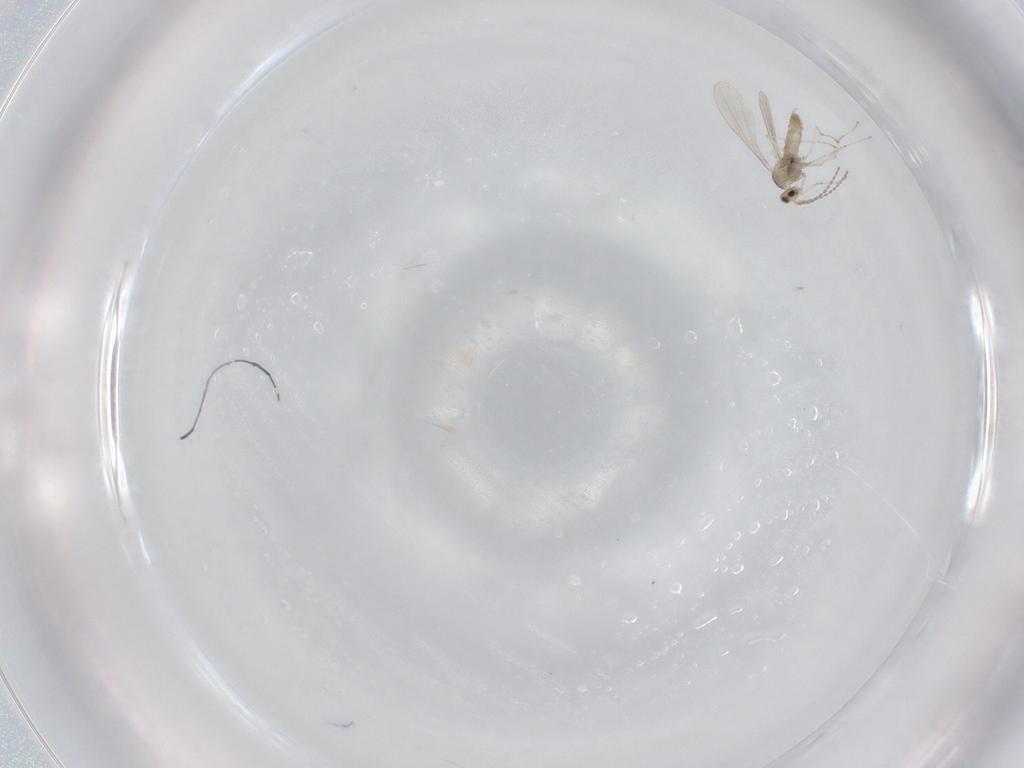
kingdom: Animalia
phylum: Arthropoda
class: Insecta
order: Diptera
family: Cecidomyiidae
